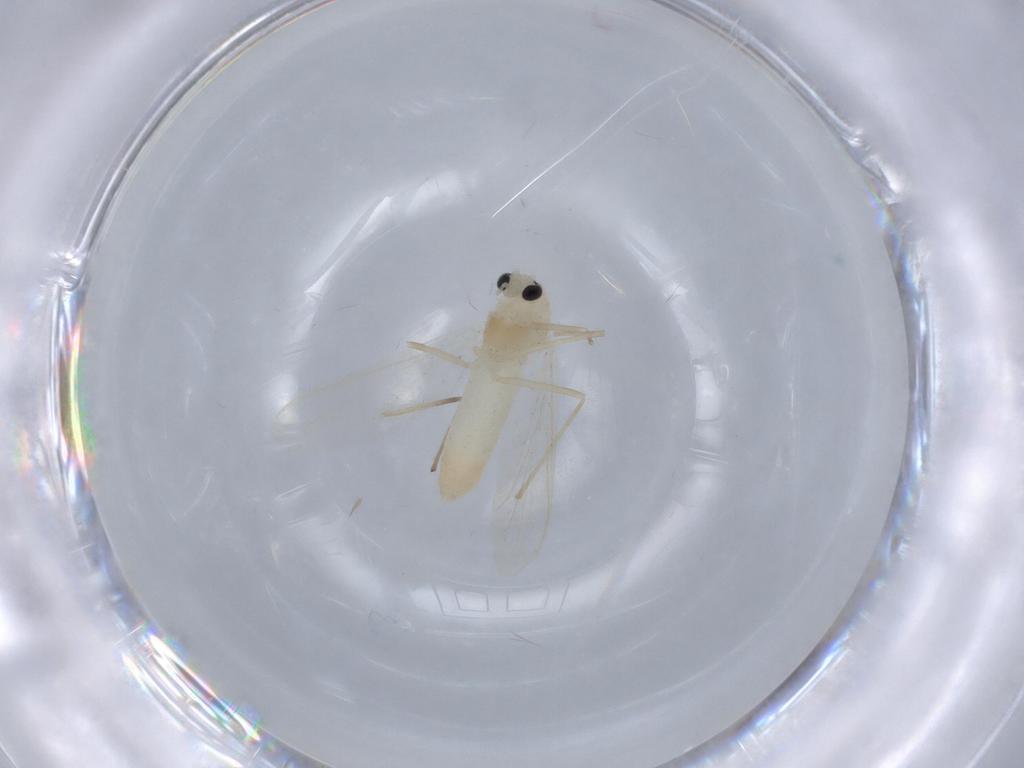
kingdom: Animalia
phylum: Arthropoda
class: Insecta
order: Diptera
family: Chironomidae
